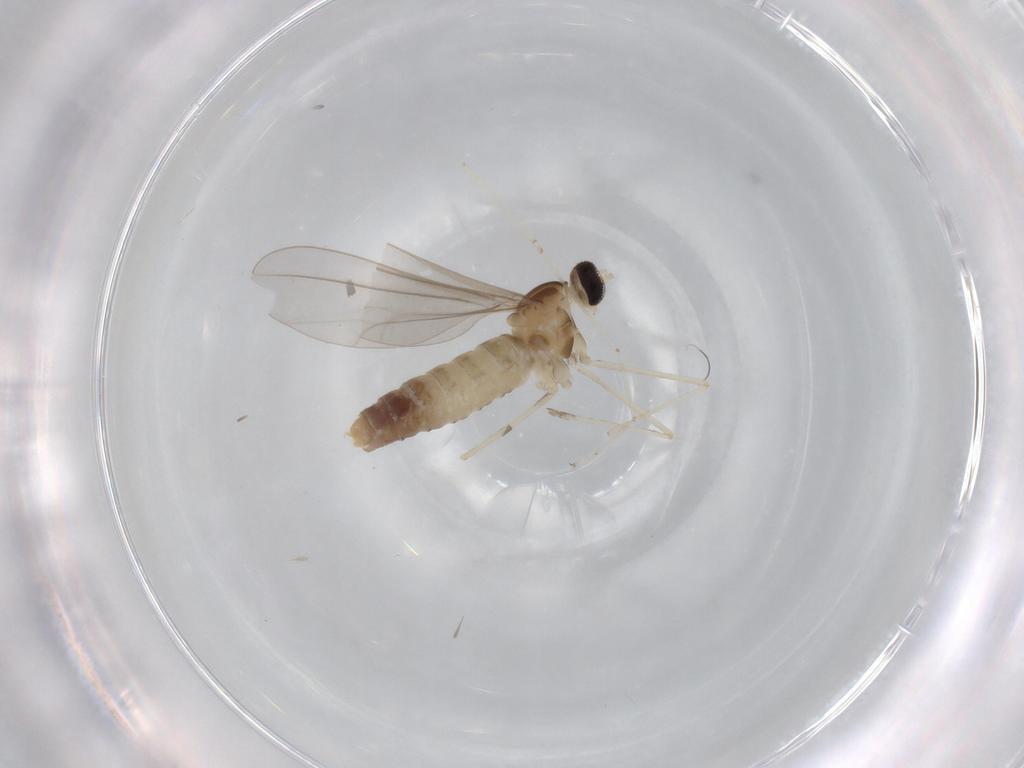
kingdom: Animalia
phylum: Arthropoda
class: Insecta
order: Diptera
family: Cecidomyiidae
